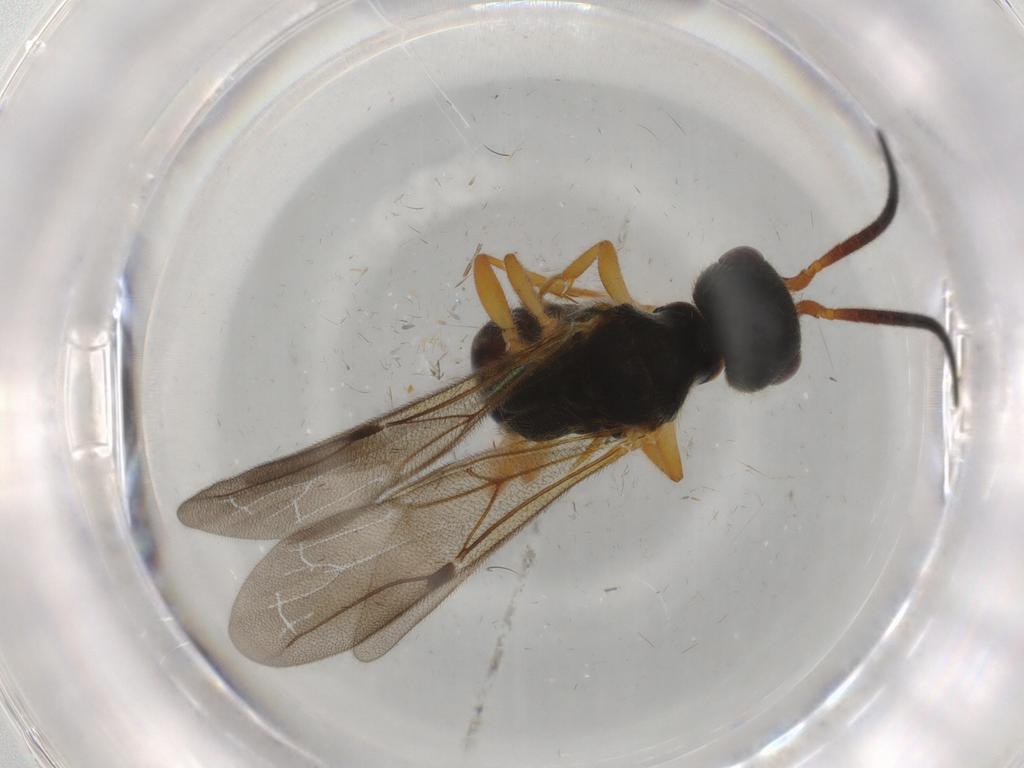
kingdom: Animalia
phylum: Arthropoda
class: Insecta
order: Hymenoptera
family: Bethylidae
